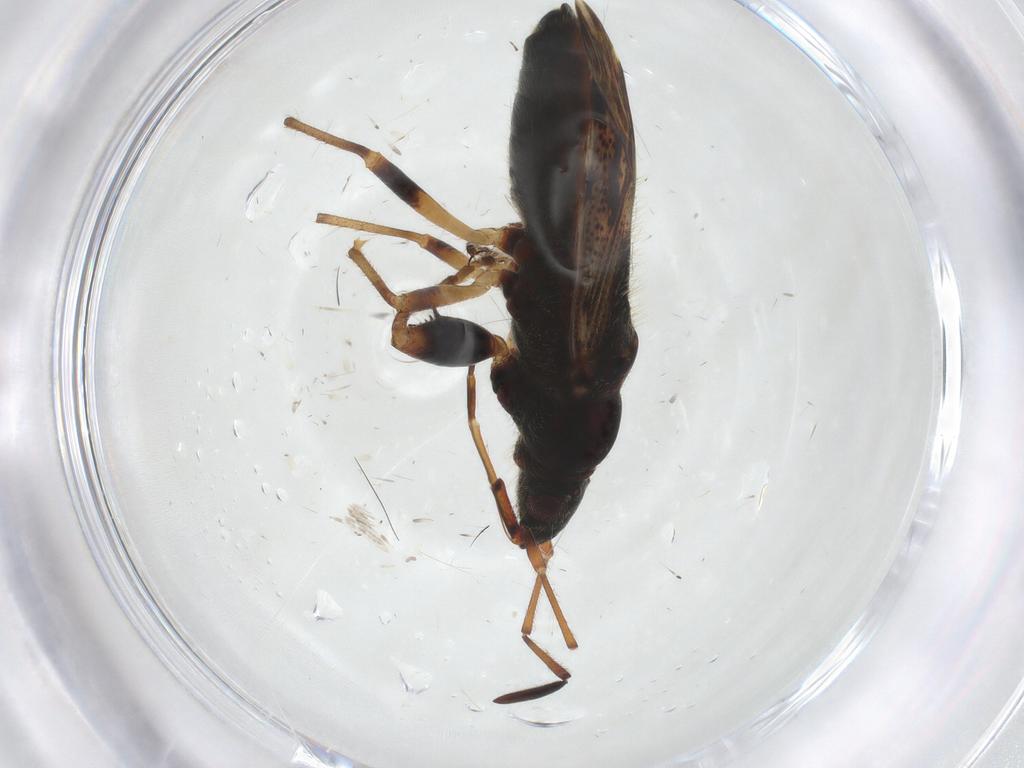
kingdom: Animalia
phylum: Arthropoda
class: Insecta
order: Hemiptera
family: Rhyparochromidae
